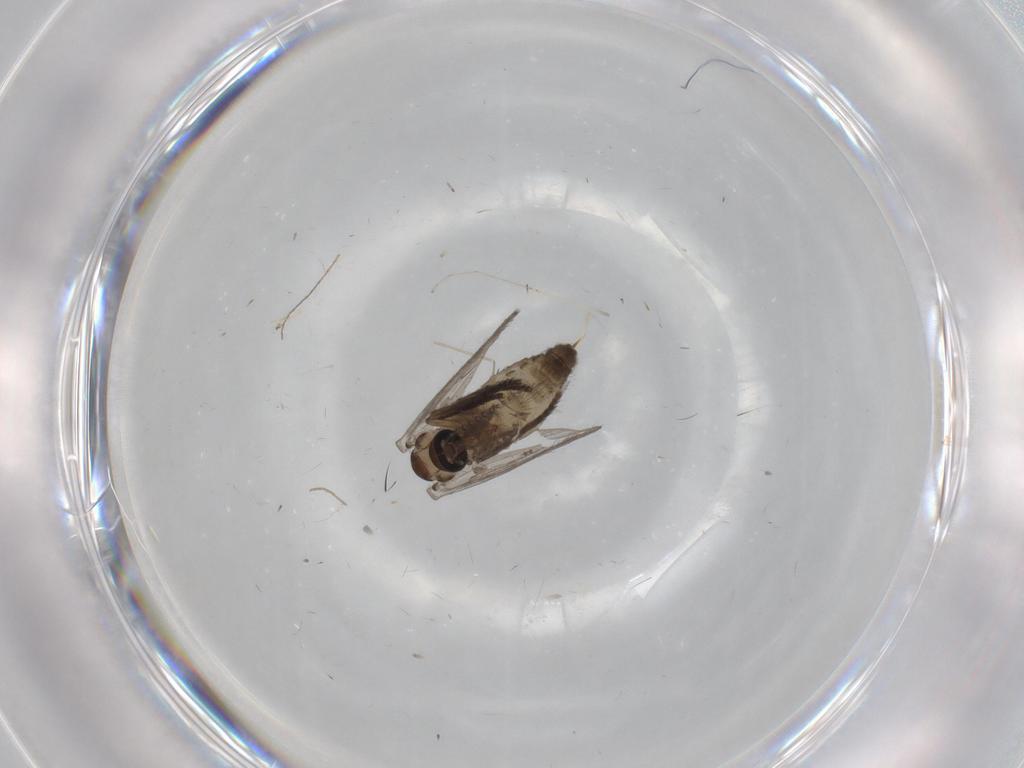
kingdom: Animalia
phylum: Arthropoda
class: Insecta
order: Diptera
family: Psychodidae
